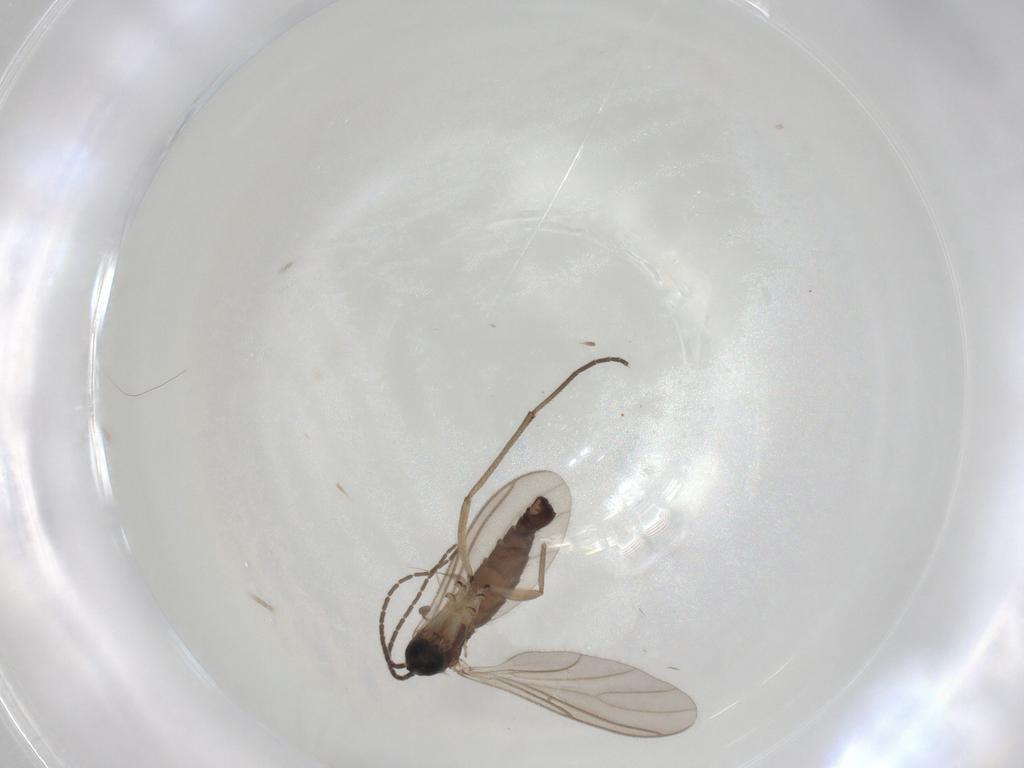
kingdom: Animalia
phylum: Arthropoda
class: Insecta
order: Diptera
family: Sciaridae
